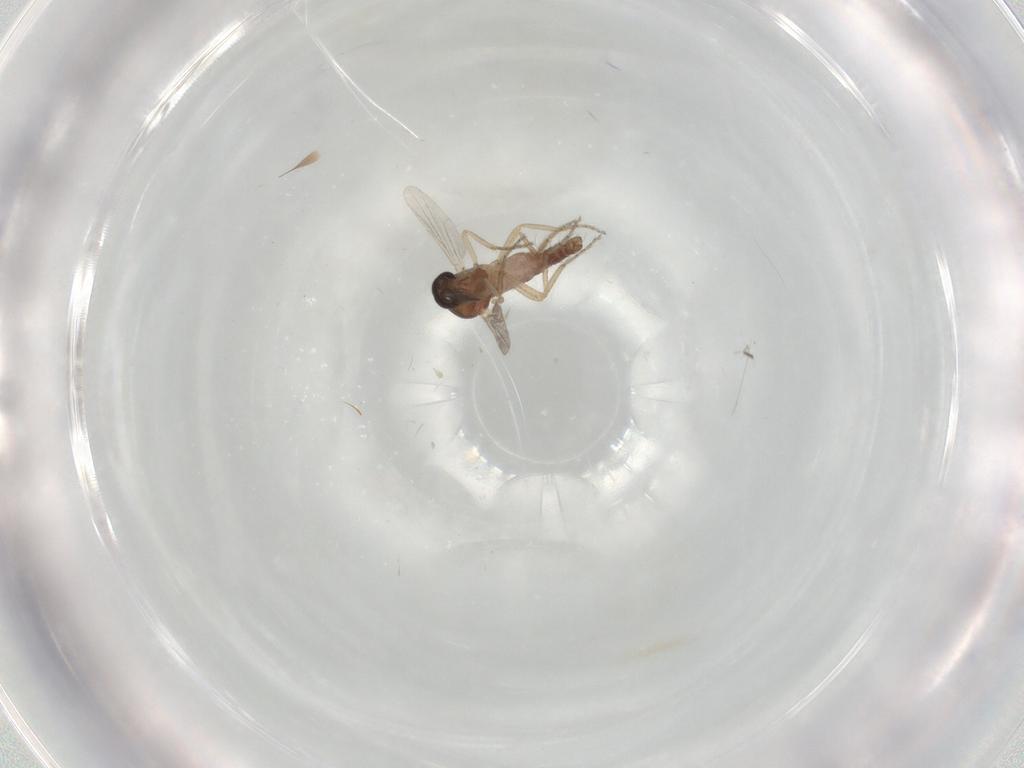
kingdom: Animalia
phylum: Arthropoda
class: Insecta
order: Diptera
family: Ceratopogonidae
